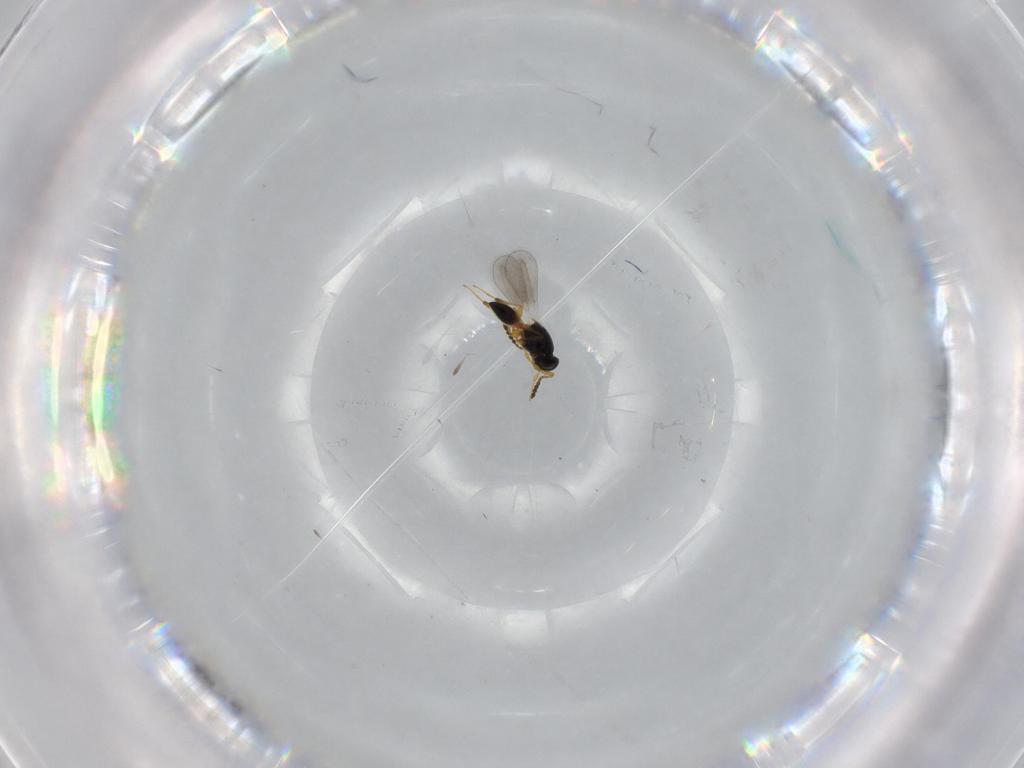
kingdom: Animalia
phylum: Arthropoda
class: Insecta
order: Hymenoptera
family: Platygastridae
